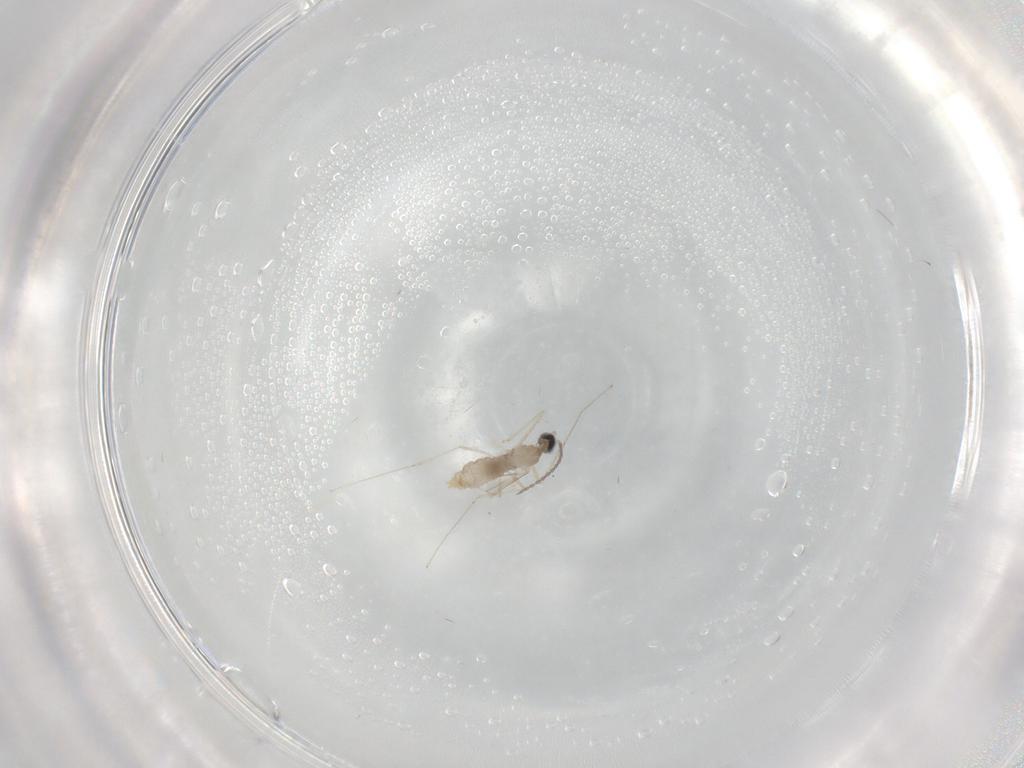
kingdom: Animalia
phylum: Arthropoda
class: Insecta
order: Diptera
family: Cecidomyiidae
